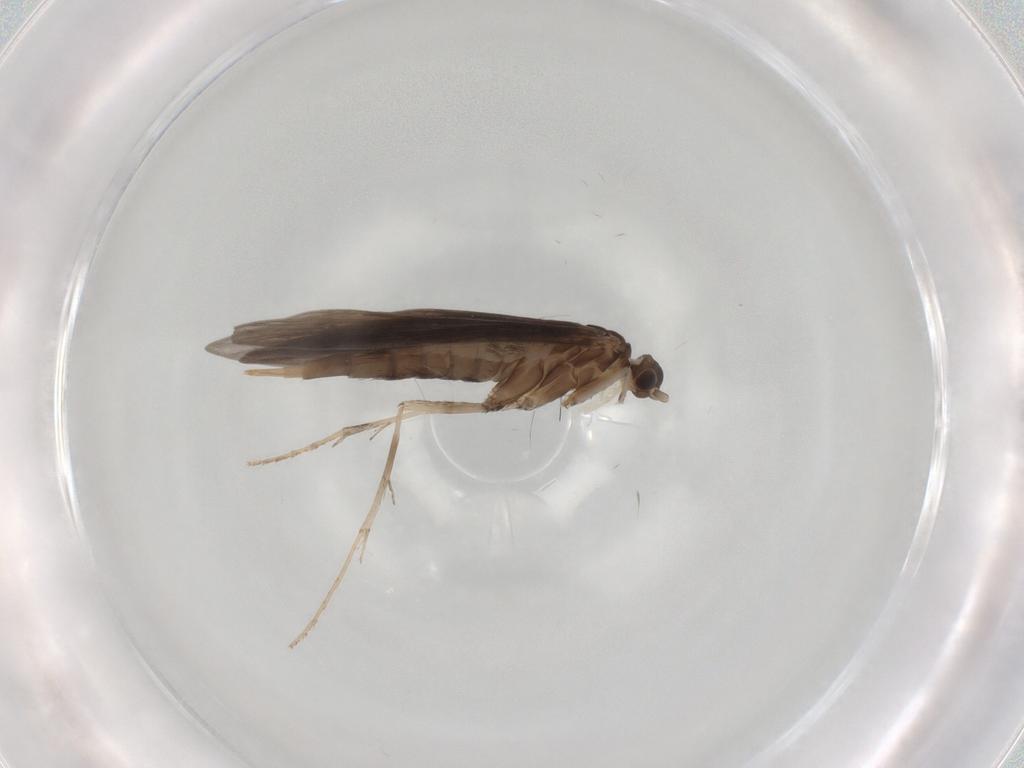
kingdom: Animalia
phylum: Arthropoda
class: Insecta
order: Trichoptera
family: Xiphocentronidae
